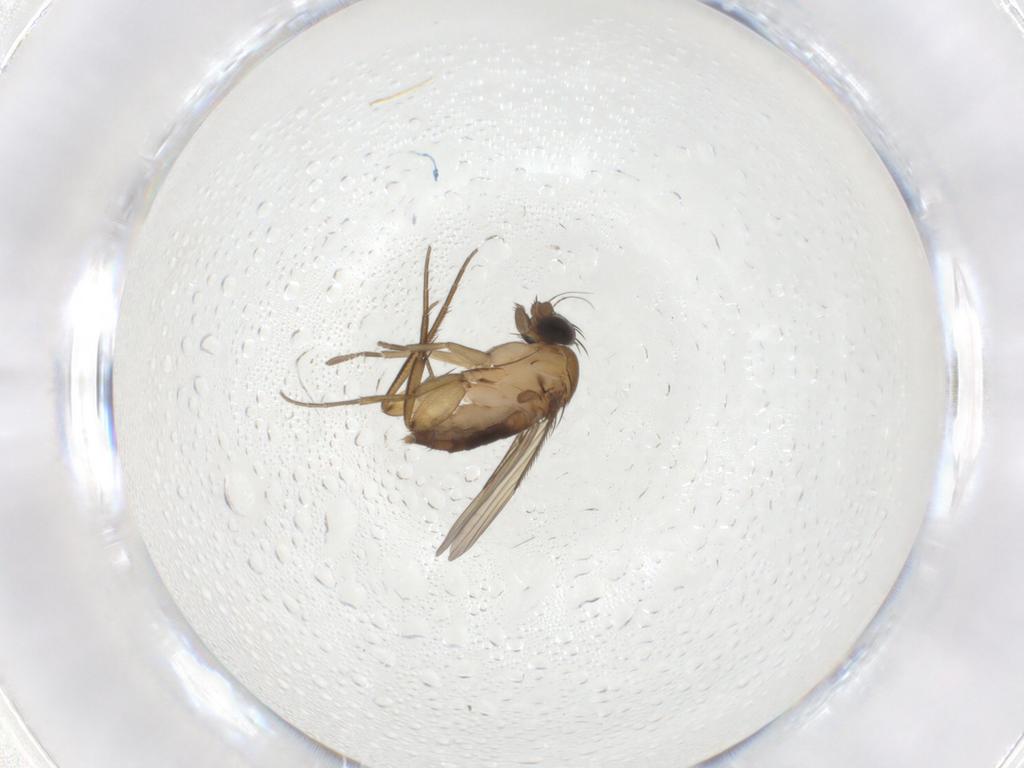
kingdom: Animalia
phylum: Arthropoda
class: Insecta
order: Diptera
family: Phoridae
